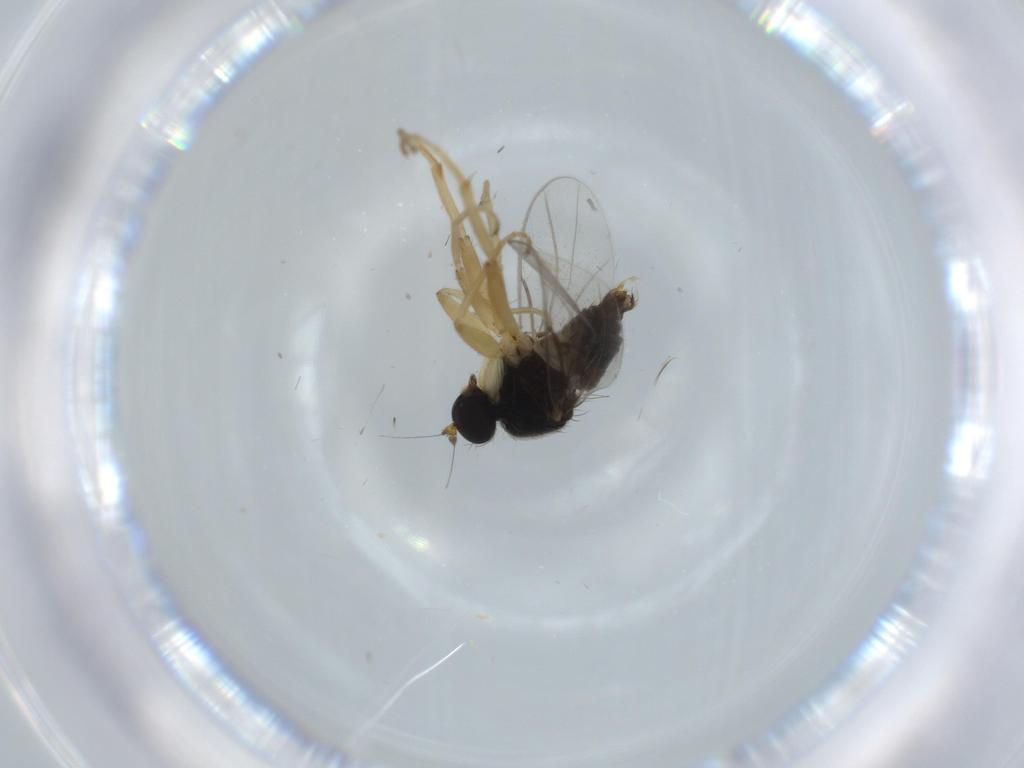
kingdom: Animalia
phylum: Arthropoda
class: Insecta
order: Diptera
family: Hybotidae
